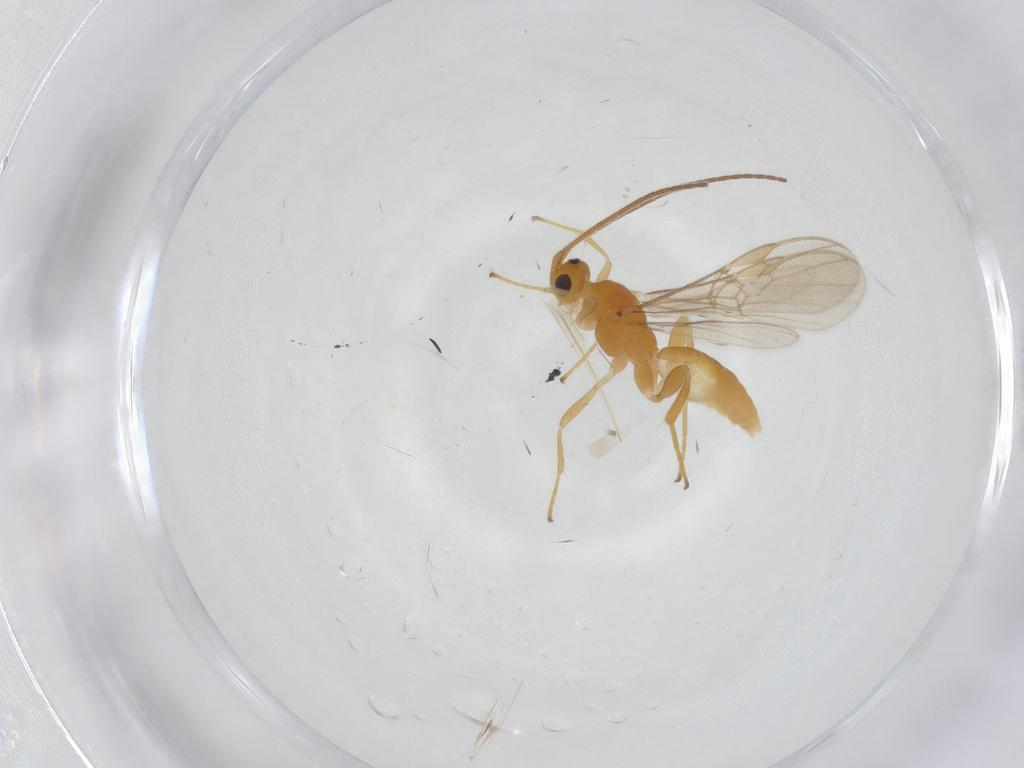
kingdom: Animalia
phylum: Arthropoda
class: Insecta
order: Hymenoptera
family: Braconidae
